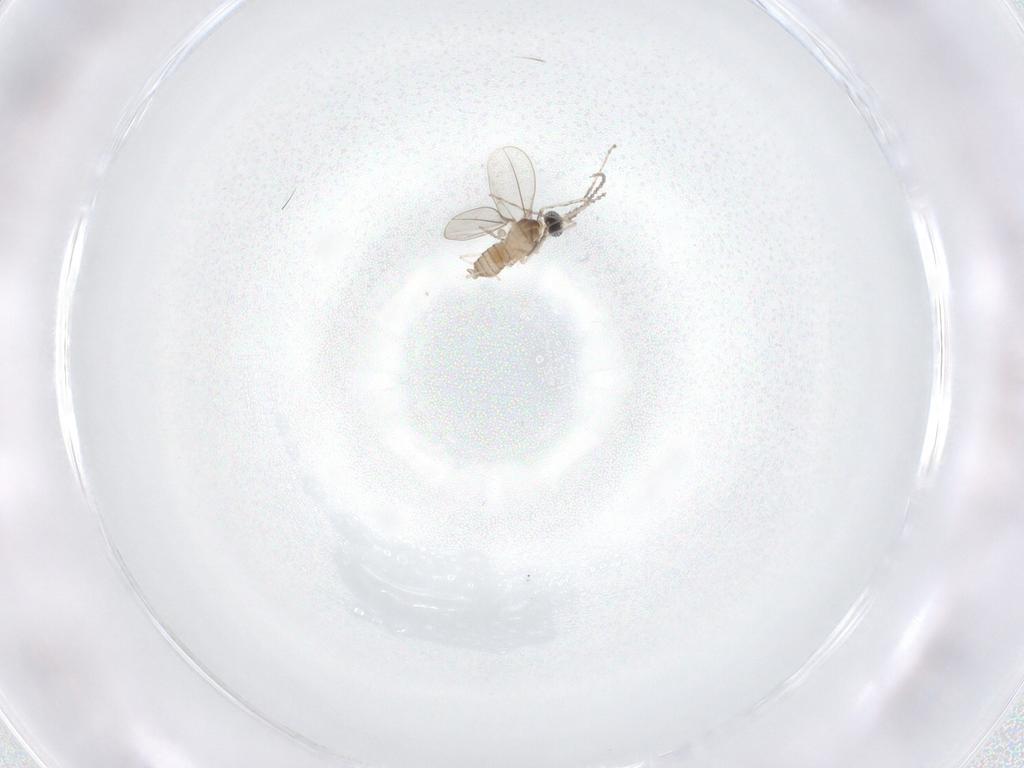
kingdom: Animalia
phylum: Arthropoda
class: Insecta
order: Diptera
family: Cecidomyiidae
